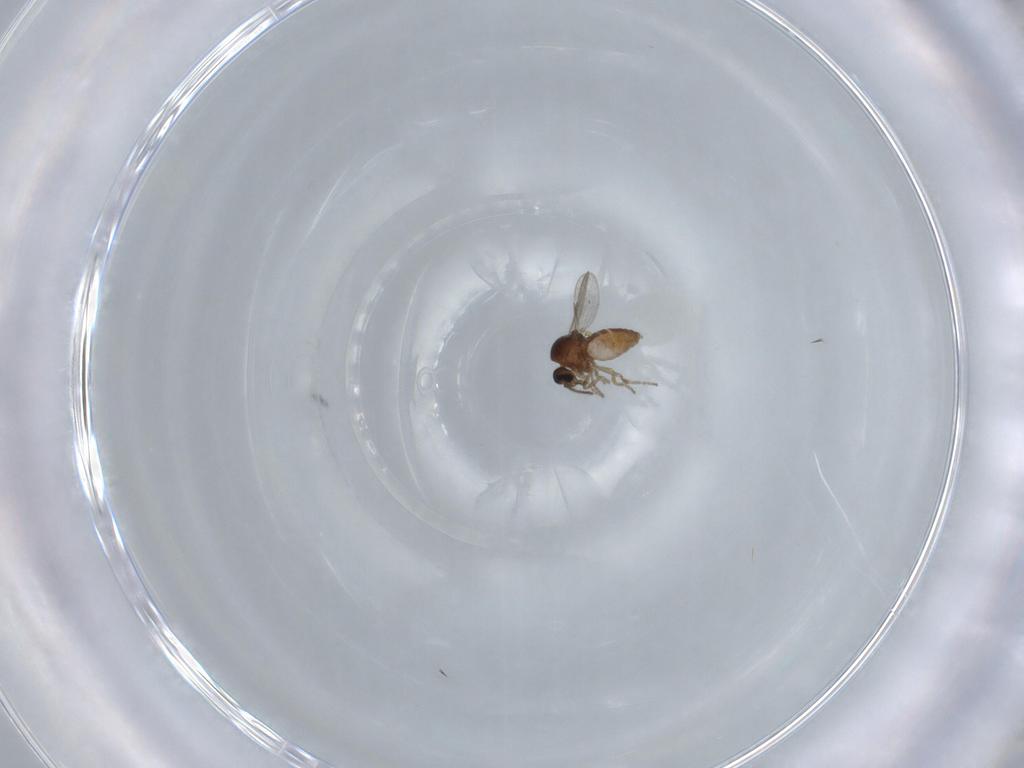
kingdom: Animalia
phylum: Arthropoda
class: Insecta
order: Diptera
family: Ceratopogonidae
